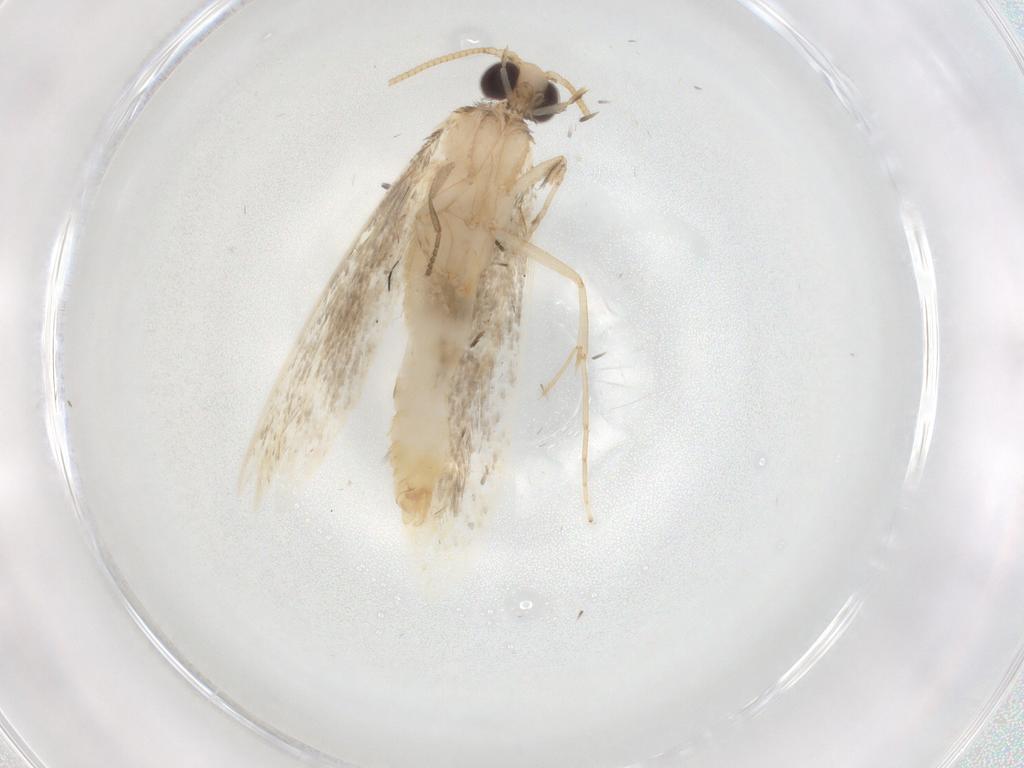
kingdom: Animalia
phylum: Arthropoda
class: Insecta
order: Lepidoptera
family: Tineidae
